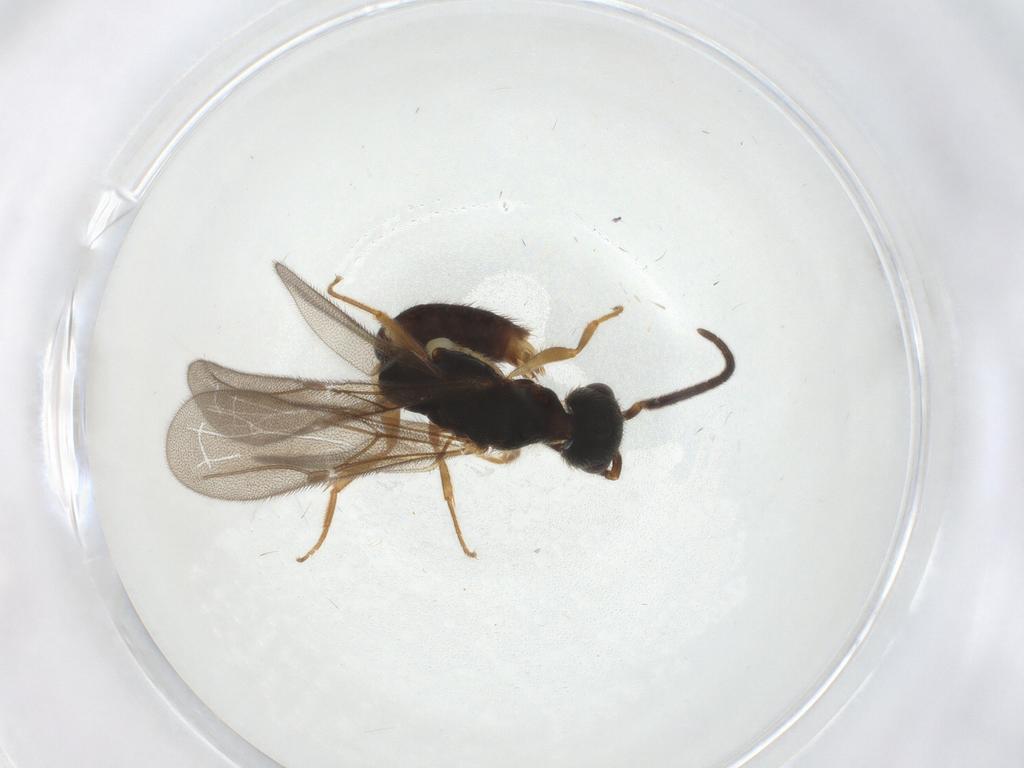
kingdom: Animalia
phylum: Arthropoda
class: Insecta
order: Hymenoptera
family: Bethylidae
